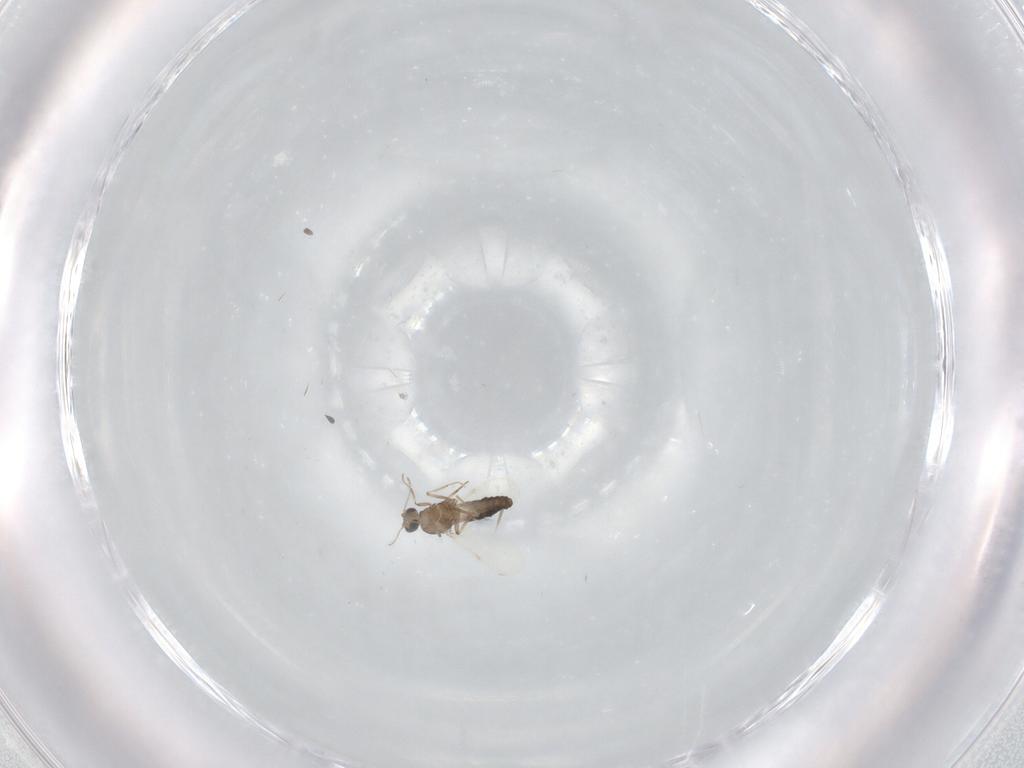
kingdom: Animalia
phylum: Arthropoda
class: Insecta
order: Diptera
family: Ceratopogonidae
